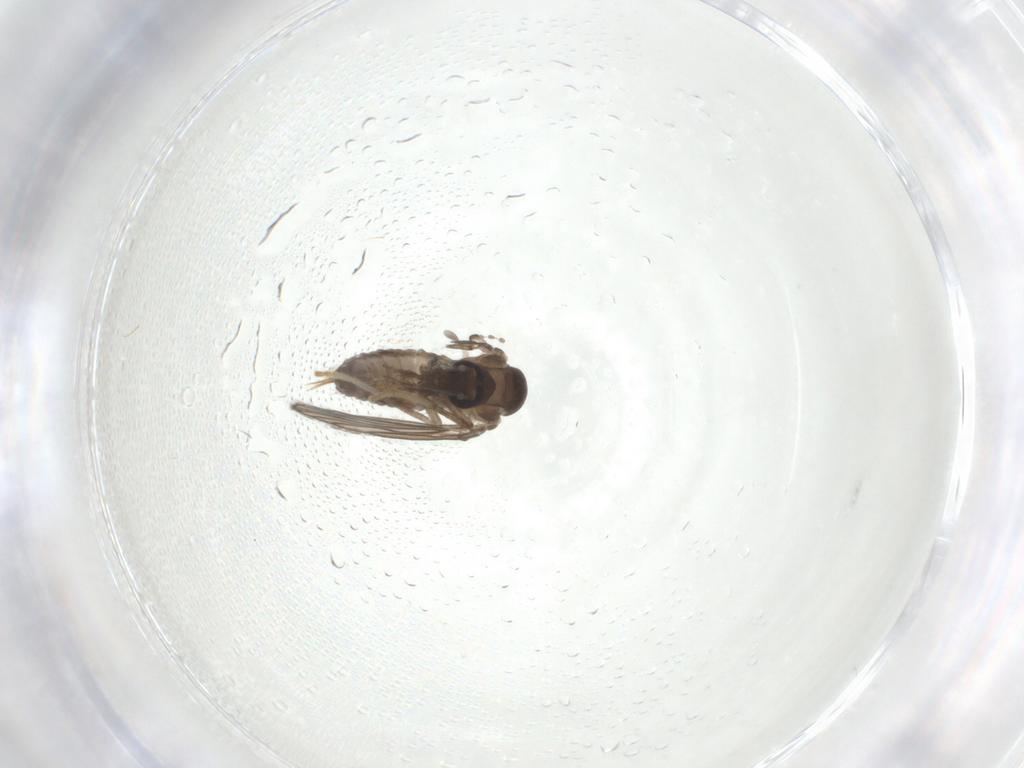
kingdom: Animalia
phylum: Arthropoda
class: Insecta
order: Diptera
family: Psychodidae
